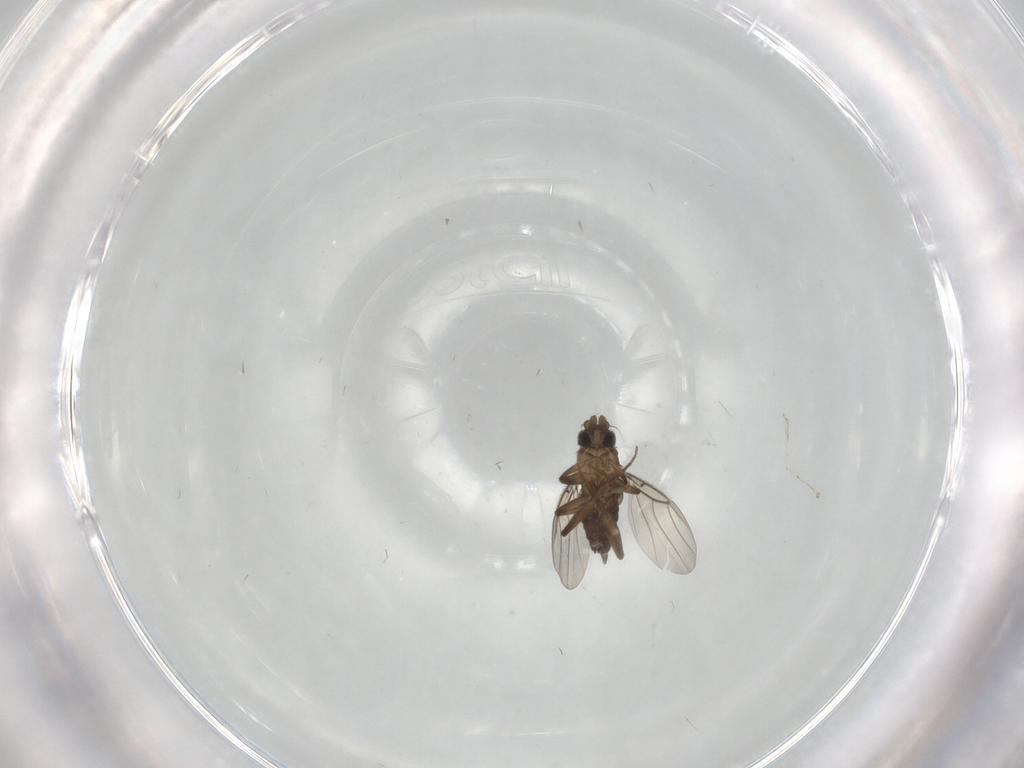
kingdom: Animalia
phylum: Arthropoda
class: Insecta
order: Diptera
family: Phoridae
